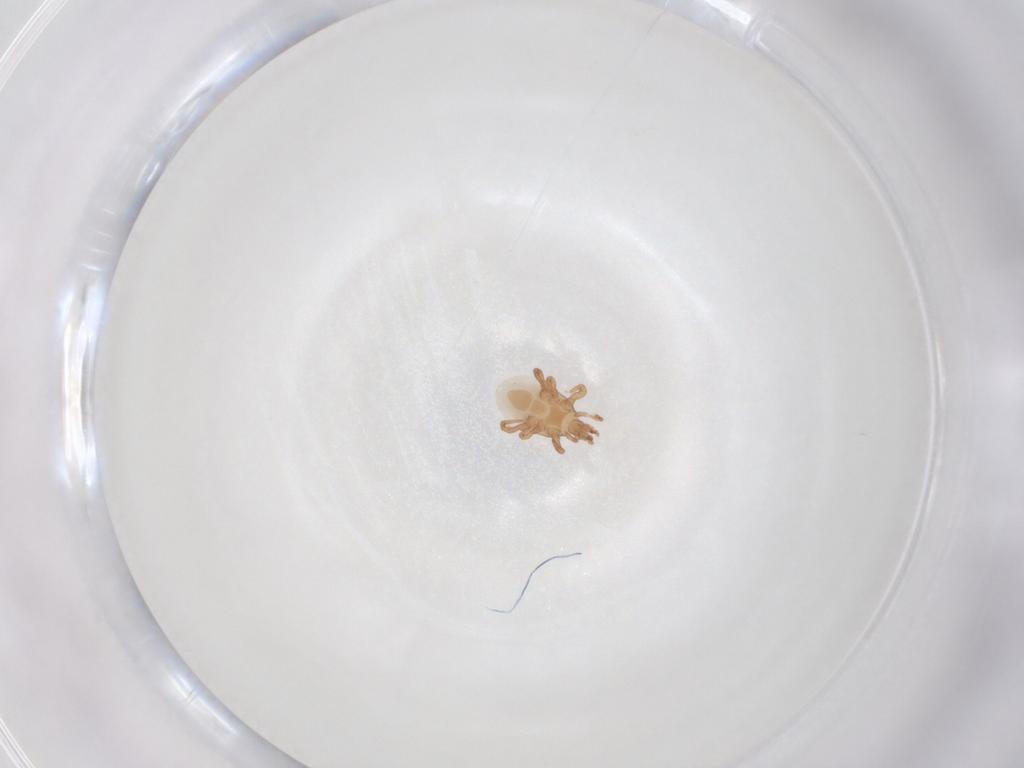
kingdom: Animalia
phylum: Arthropoda
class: Arachnida
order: Mesostigmata
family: Macrochelidae
